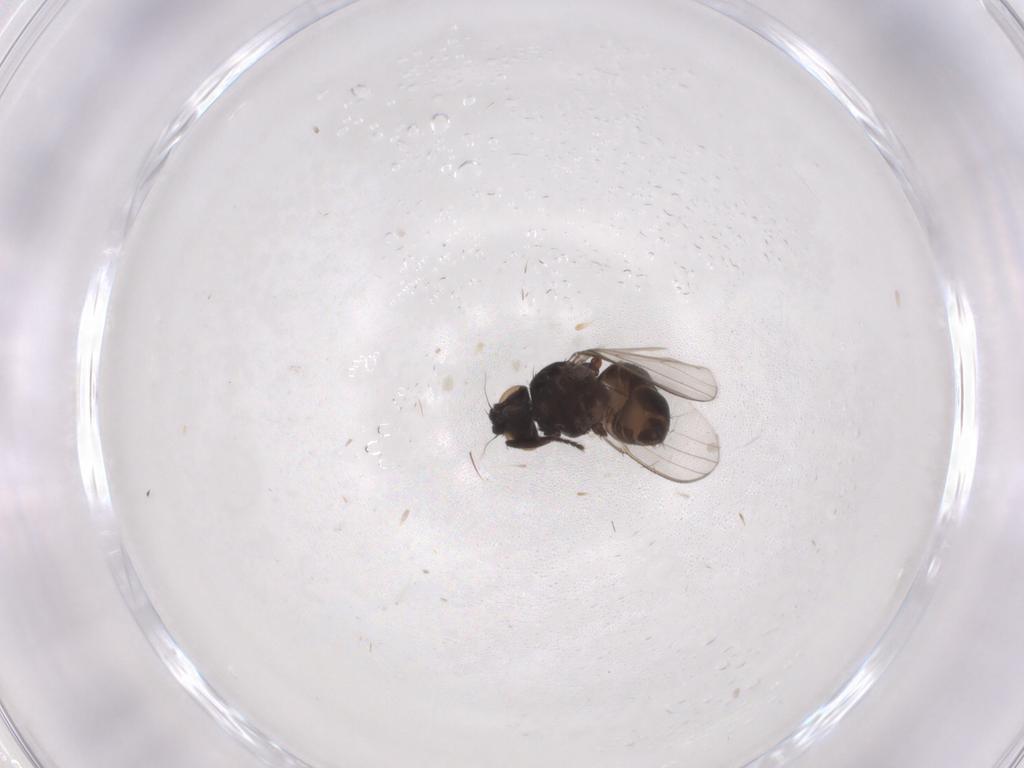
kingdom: Animalia
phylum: Arthropoda
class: Insecta
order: Diptera
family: Milichiidae
